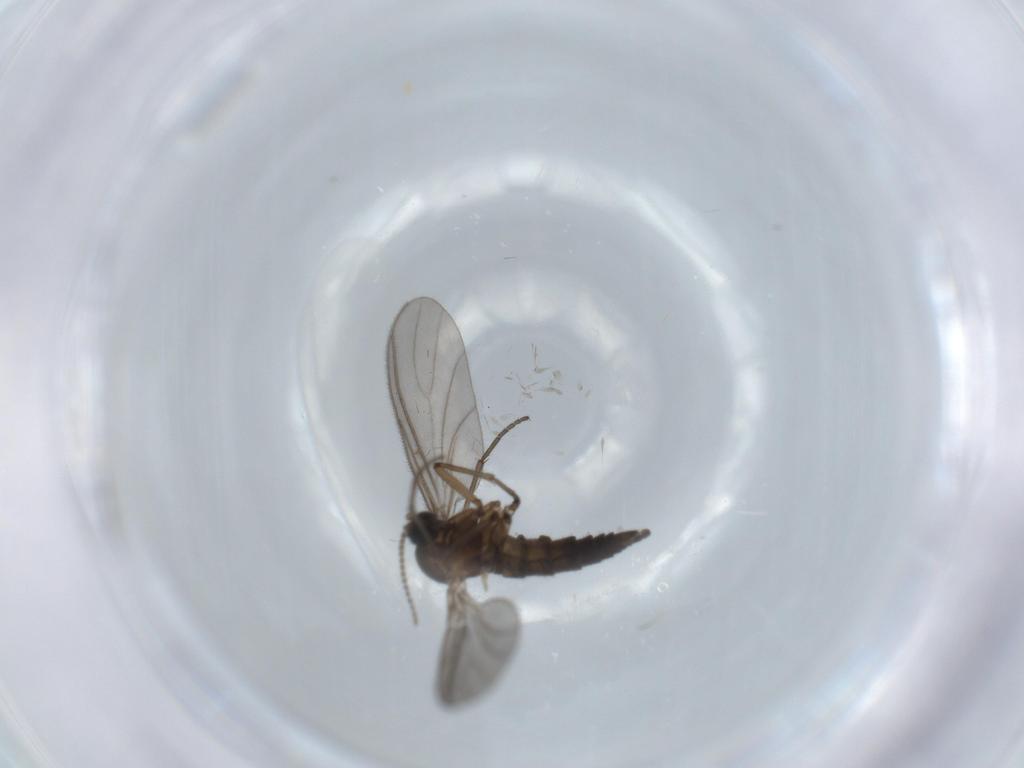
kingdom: Animalia
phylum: Arthropoda
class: Insecta
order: Diptera
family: Sciaridae
